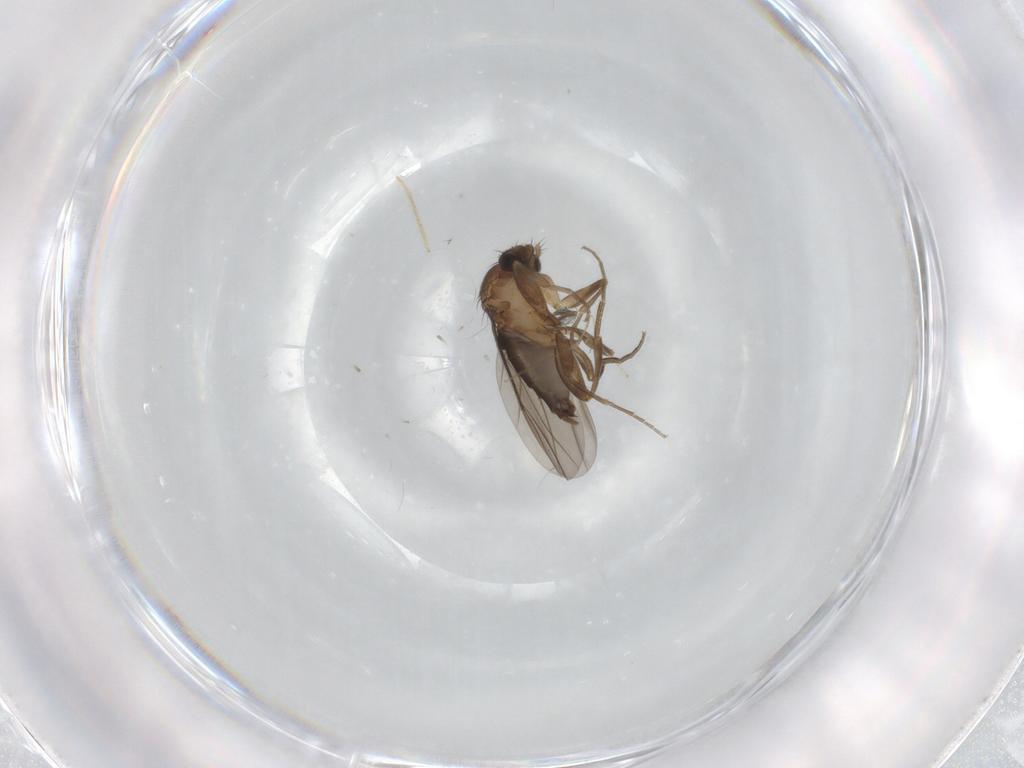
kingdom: Animalia
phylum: Arthropoda
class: Insecta
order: Diptera
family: Phoridae
